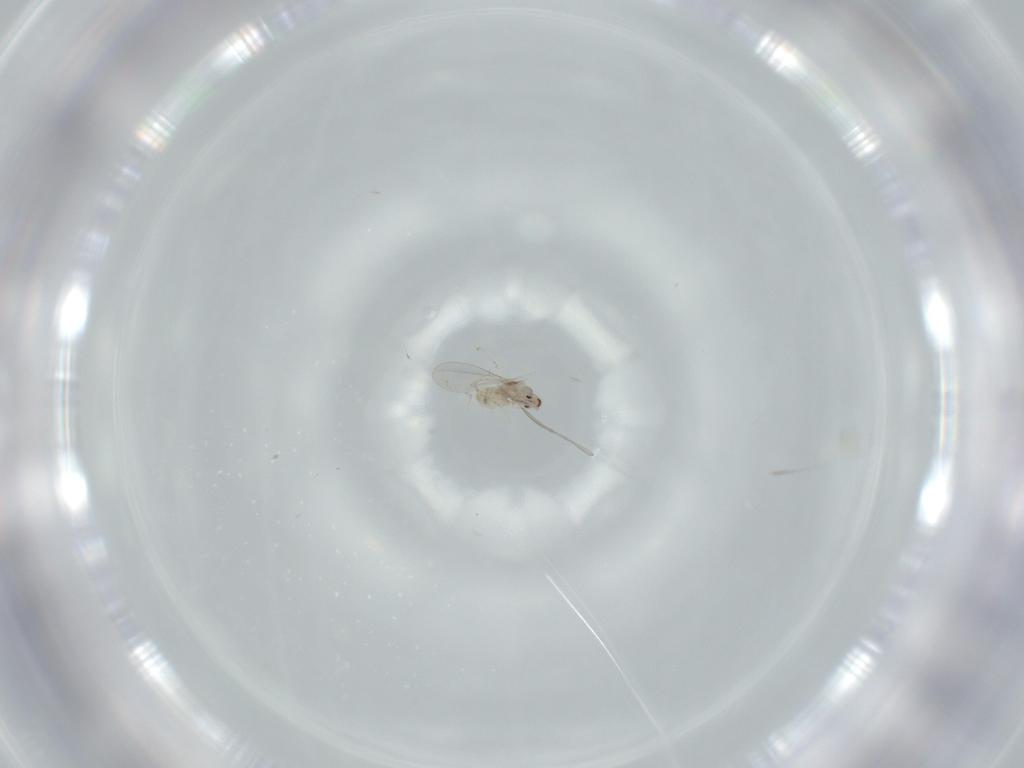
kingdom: Animalia
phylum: Arthropoda
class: Insecta
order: Diptera
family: Cecidomyiidae
